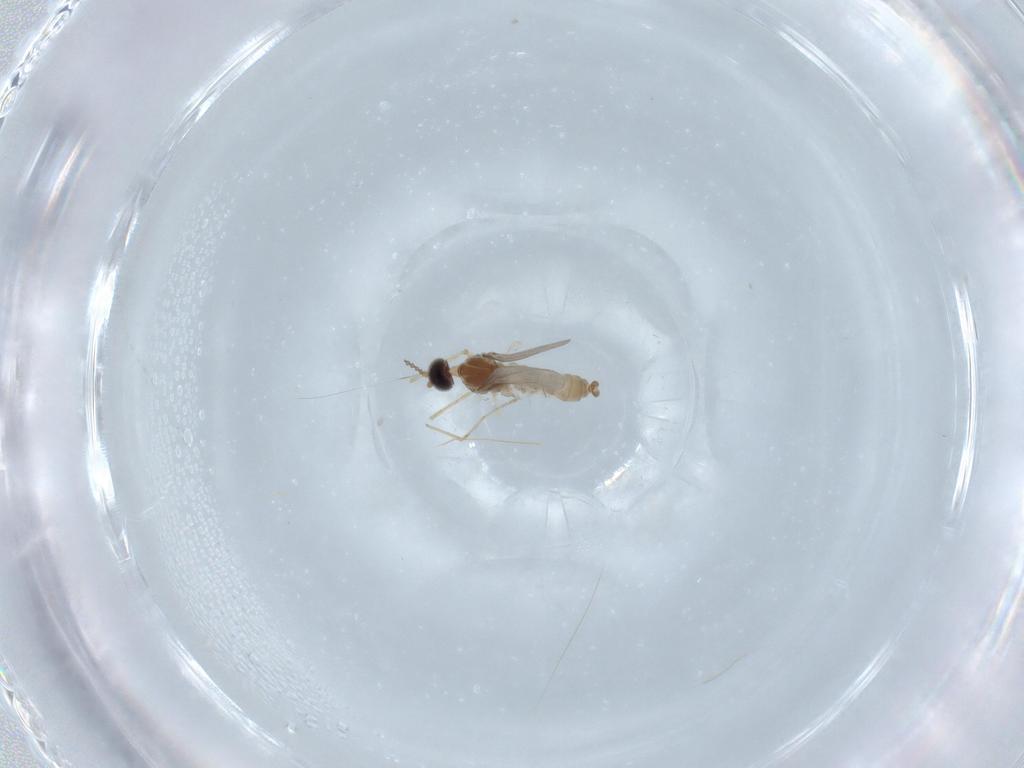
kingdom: Animalia
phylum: Arthropoda
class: Insecta
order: Diptera
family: Cecidomyiidae
